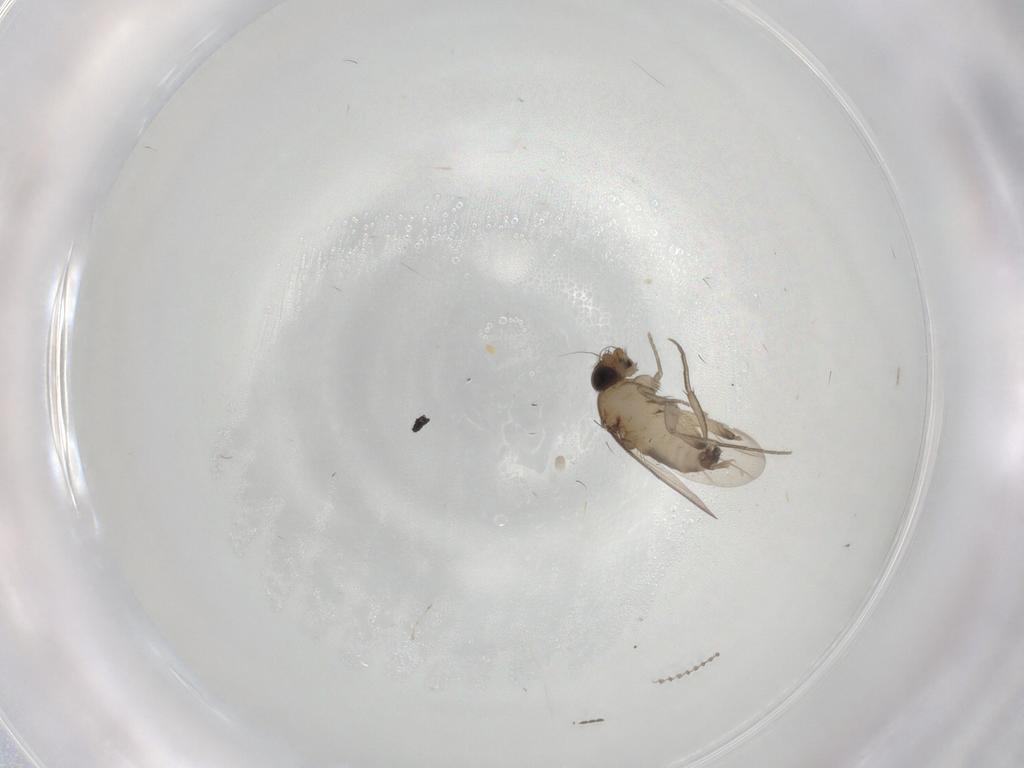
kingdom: Animalia
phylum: Arthropoda
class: Insecta
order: Diptera
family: Phoridae
